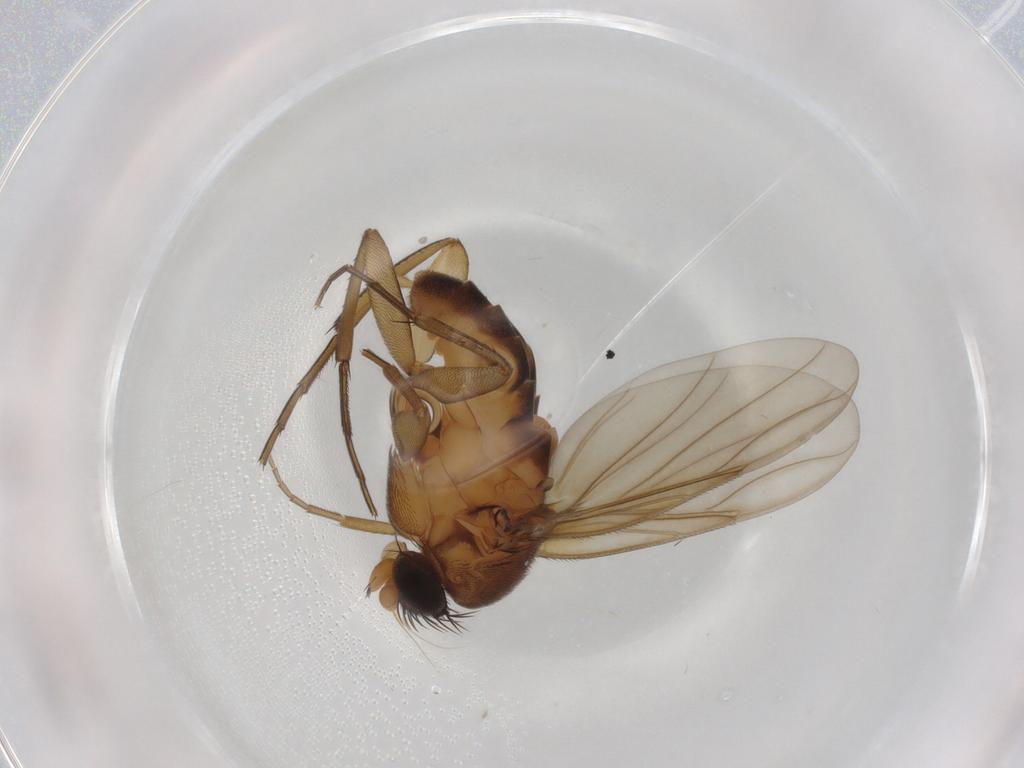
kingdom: Animalia
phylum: Arthropoda
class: Insecta
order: Diptera
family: Phoridae
